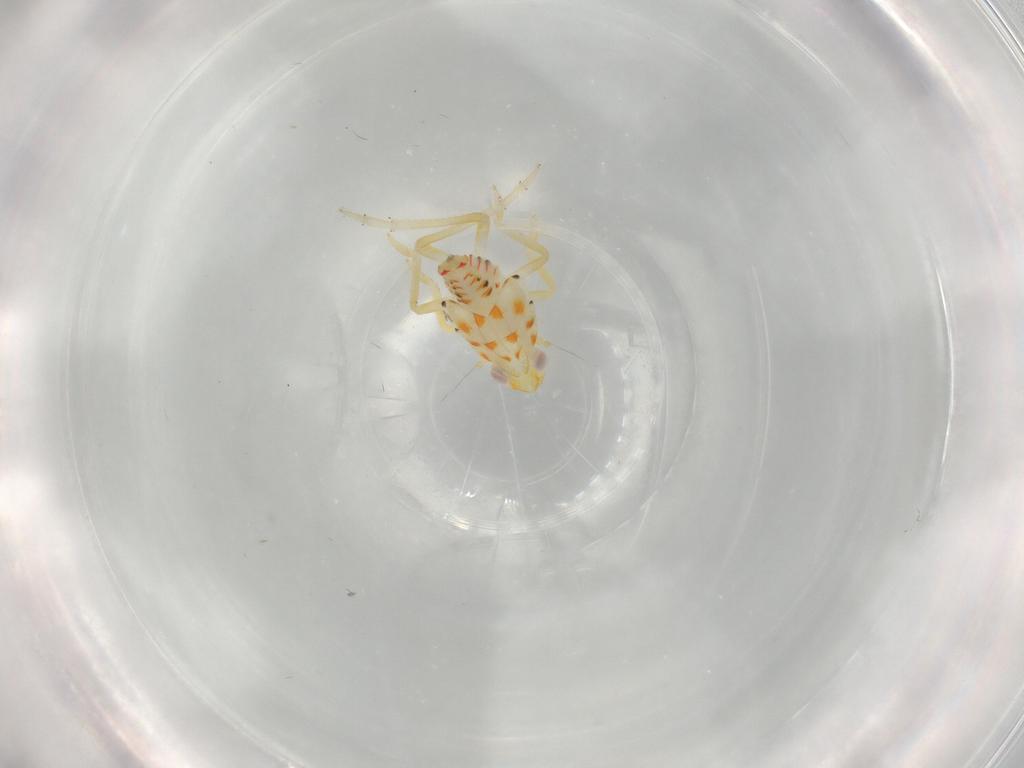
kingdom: Animalia
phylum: Arthropoda
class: Insecta
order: Hemiptera
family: Tropiduchidae
